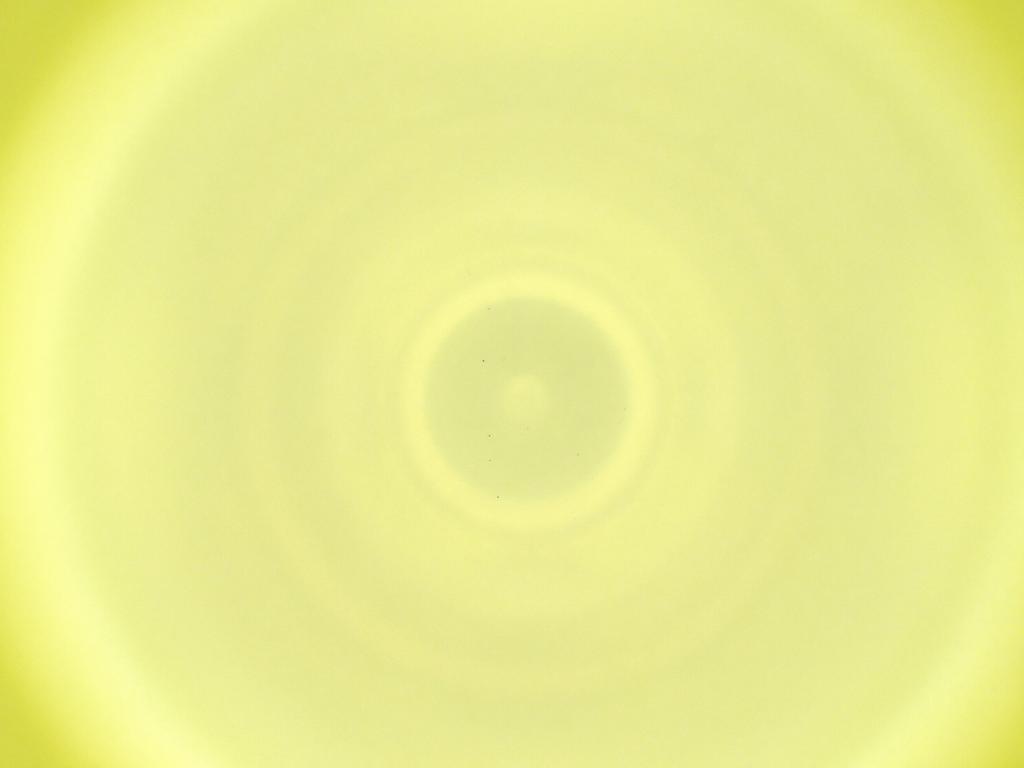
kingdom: Animalia
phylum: Arthropoda
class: Insecta
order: Diptera
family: Cecidomyiidae
